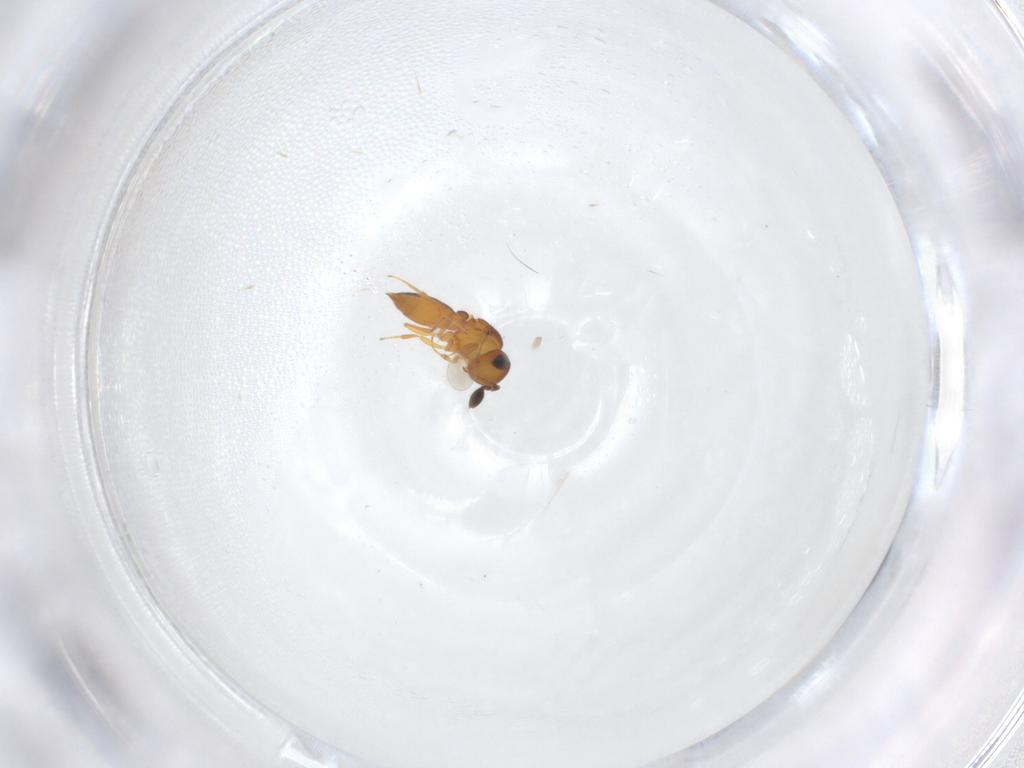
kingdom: Animalia
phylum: Arthropoda
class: Insecta
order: Hymenoptera
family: Scelionidae
